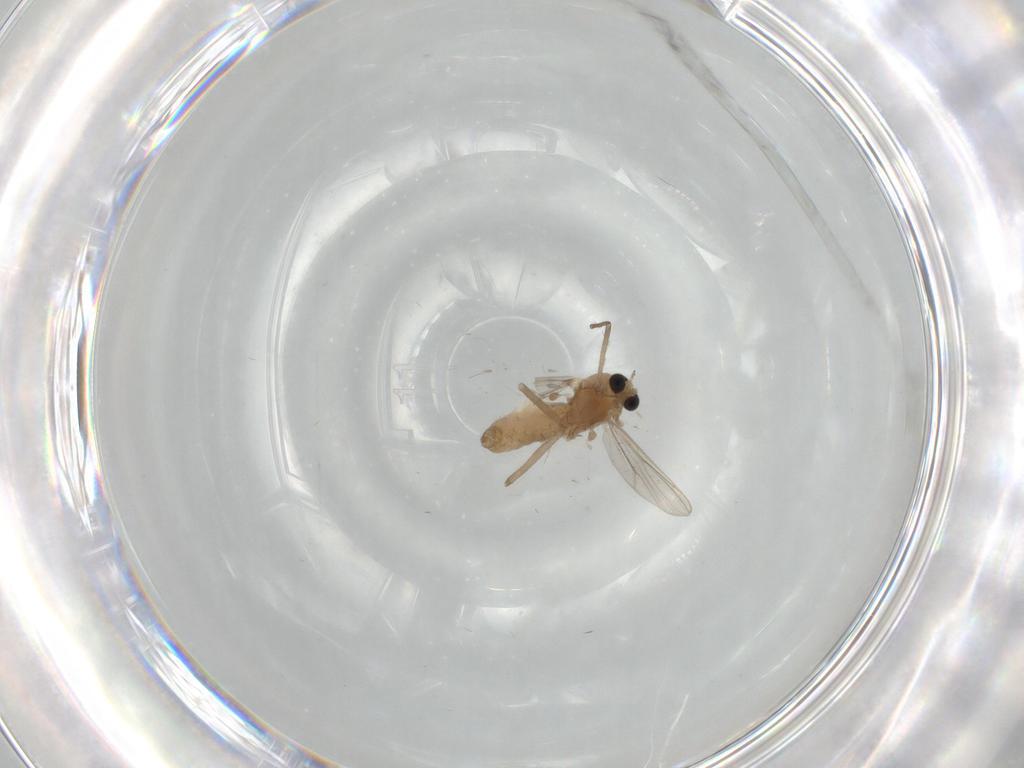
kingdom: Animalia
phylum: Arthropoda
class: Insecta
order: Diptera
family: Chironomidae
